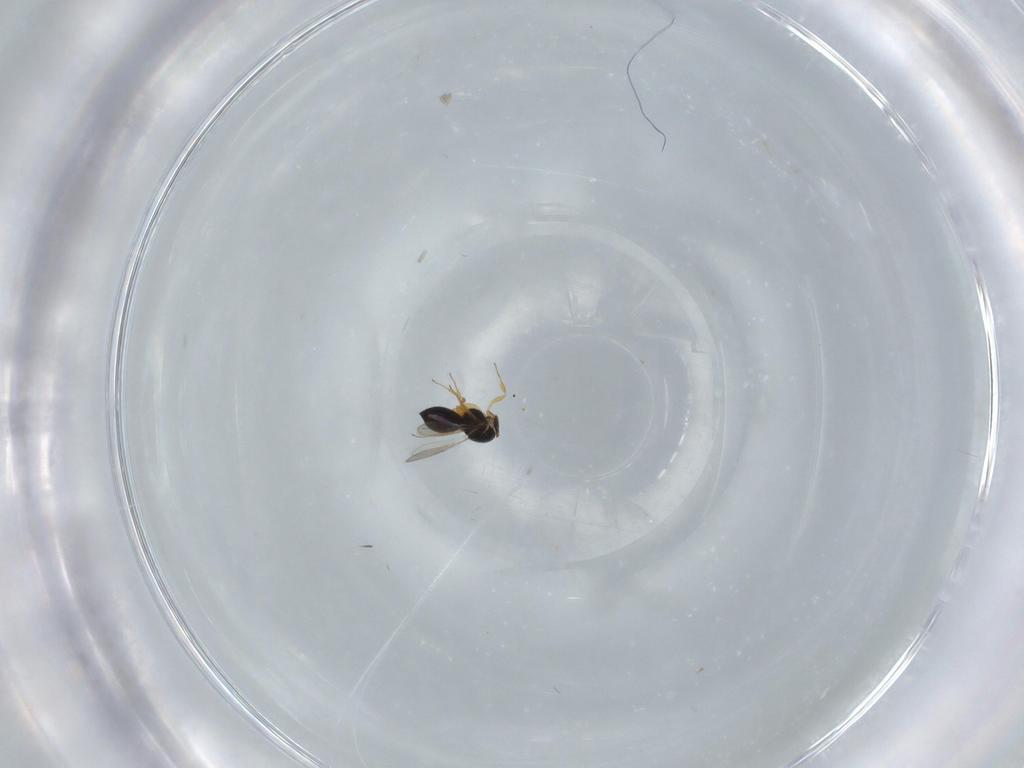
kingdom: Animalia
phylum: Arthropoda
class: Insecta
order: Hymenoptera
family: Scelionidae
